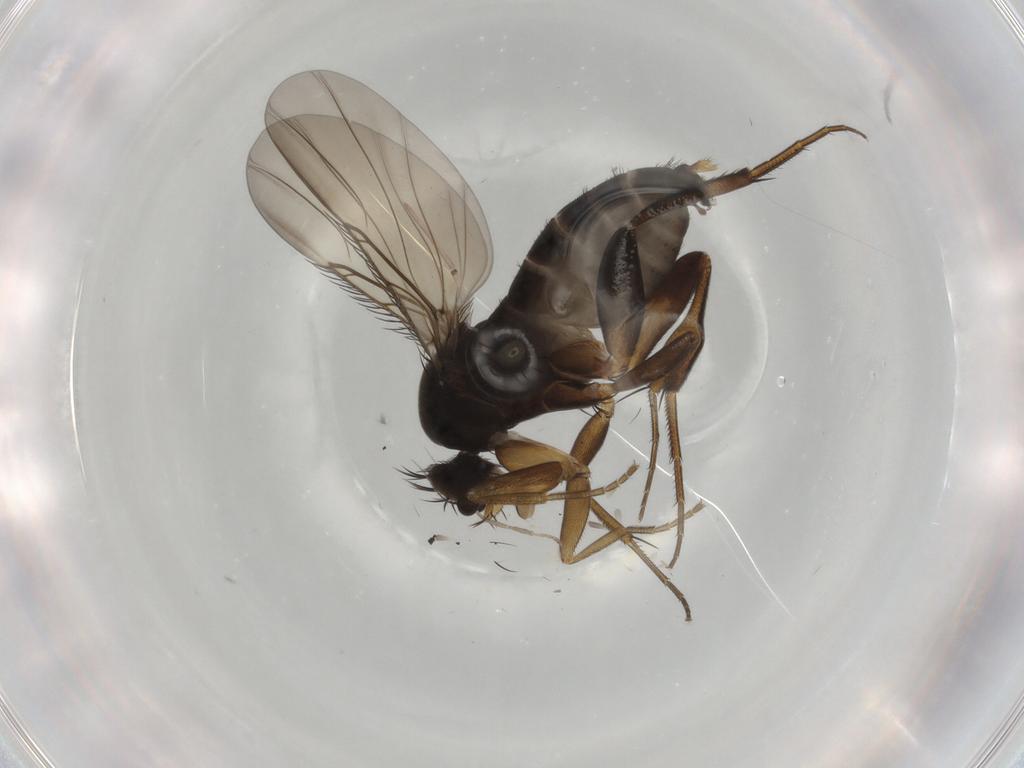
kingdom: Animalia
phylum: Arthropoda
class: Insecta
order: Diptera
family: Phoridae
